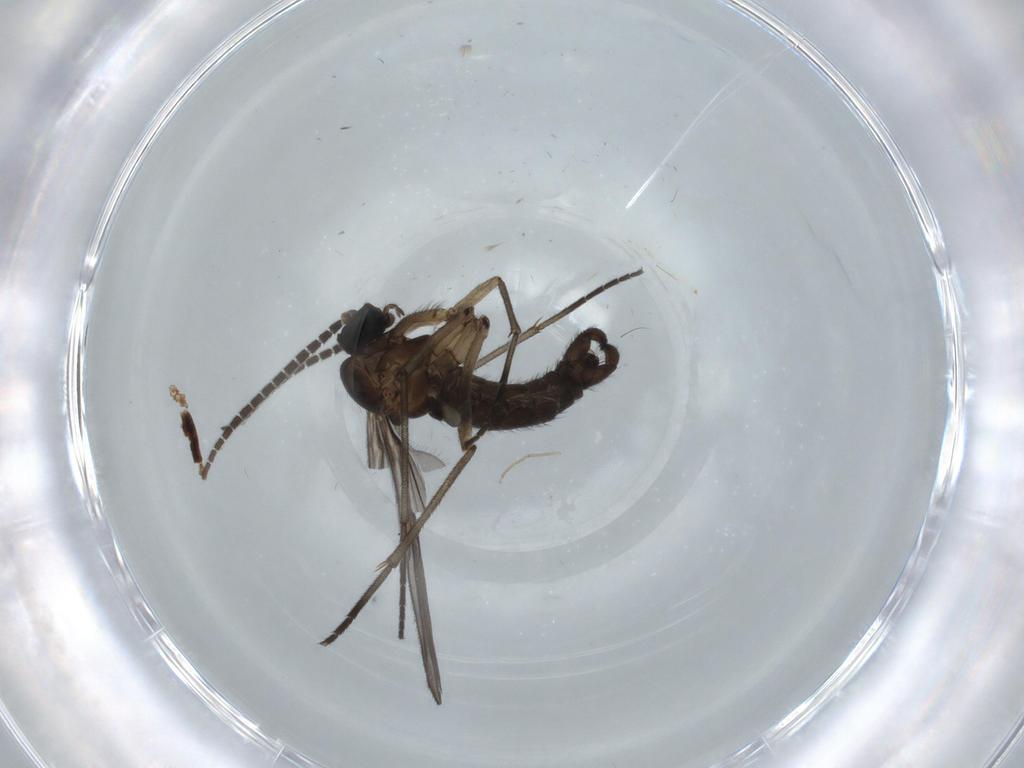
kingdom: Animalia
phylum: Arthropoda
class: Insecta
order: Diptera
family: Sciaridae
